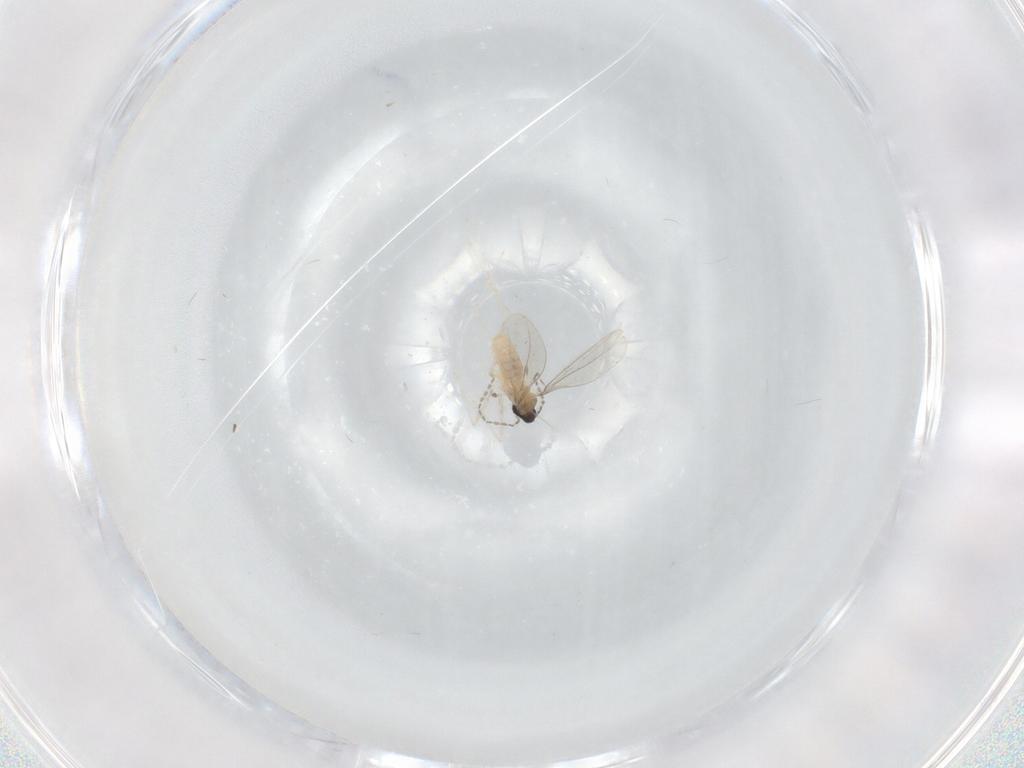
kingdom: Animalia
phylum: Arthropoda
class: Insecta
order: Diptera
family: Cecidomyiidae
